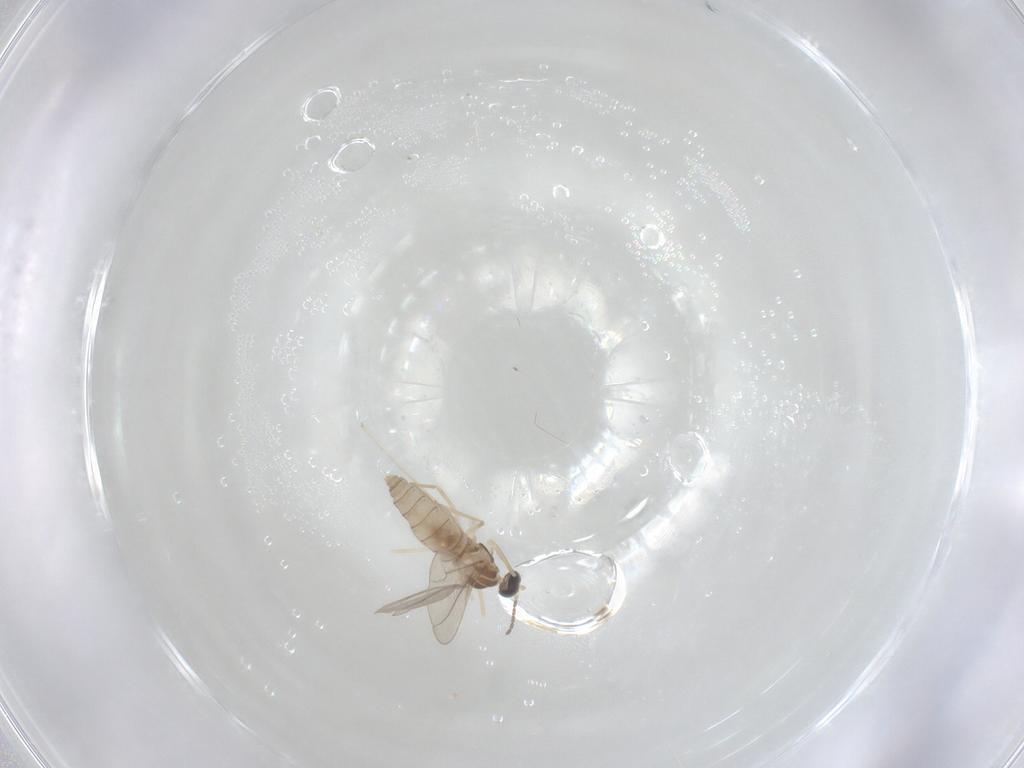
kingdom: Animalia
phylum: Arthropoda
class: Insecta
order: Diptera
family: Cecidomyiidae
